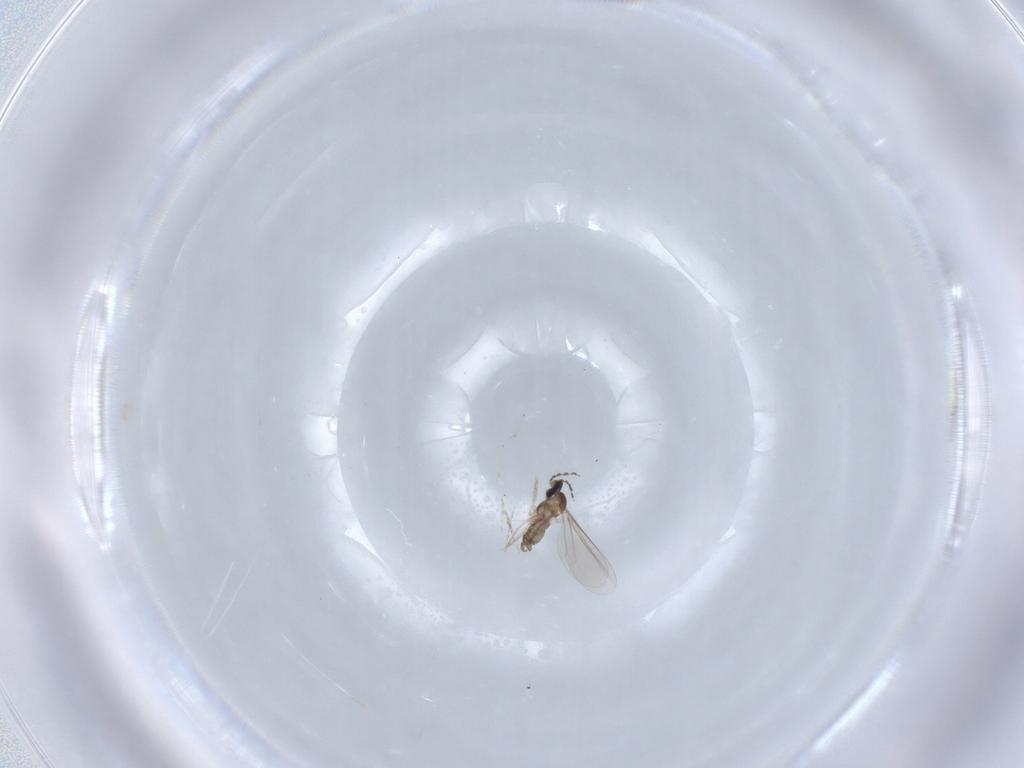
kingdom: Animalia
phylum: Arthropoda
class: Insecta
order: Diptera
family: Cecidomyiidae
